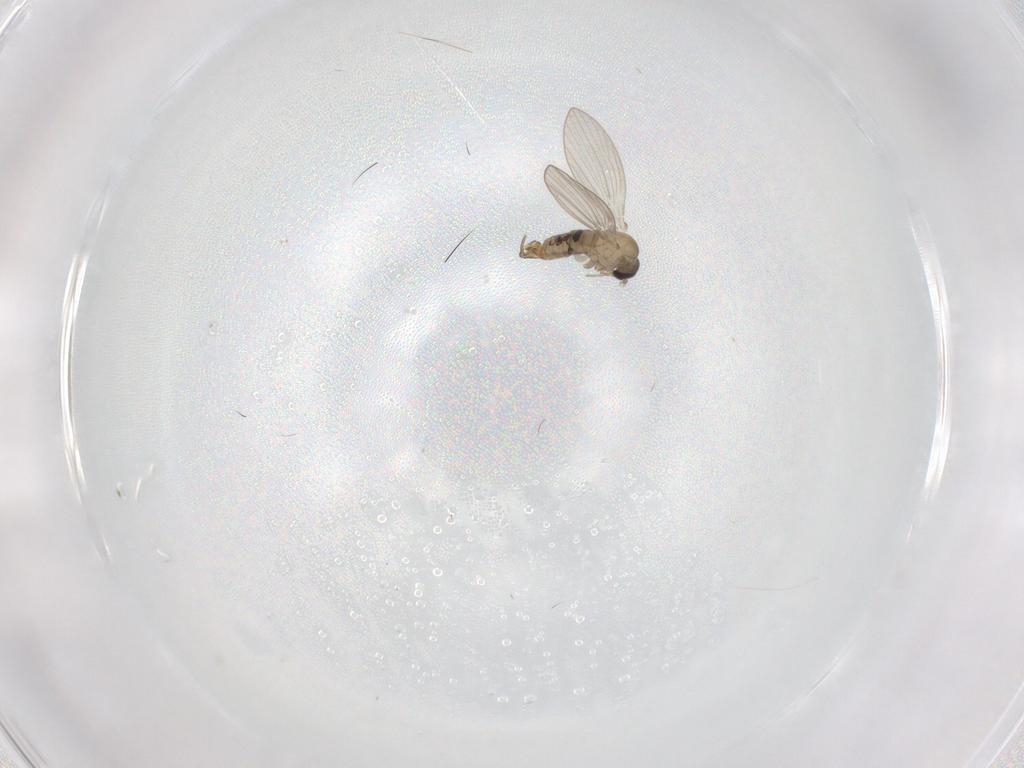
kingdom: Animalia
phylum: Arthropoda
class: Insecta
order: Diptera
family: Psychodidae
